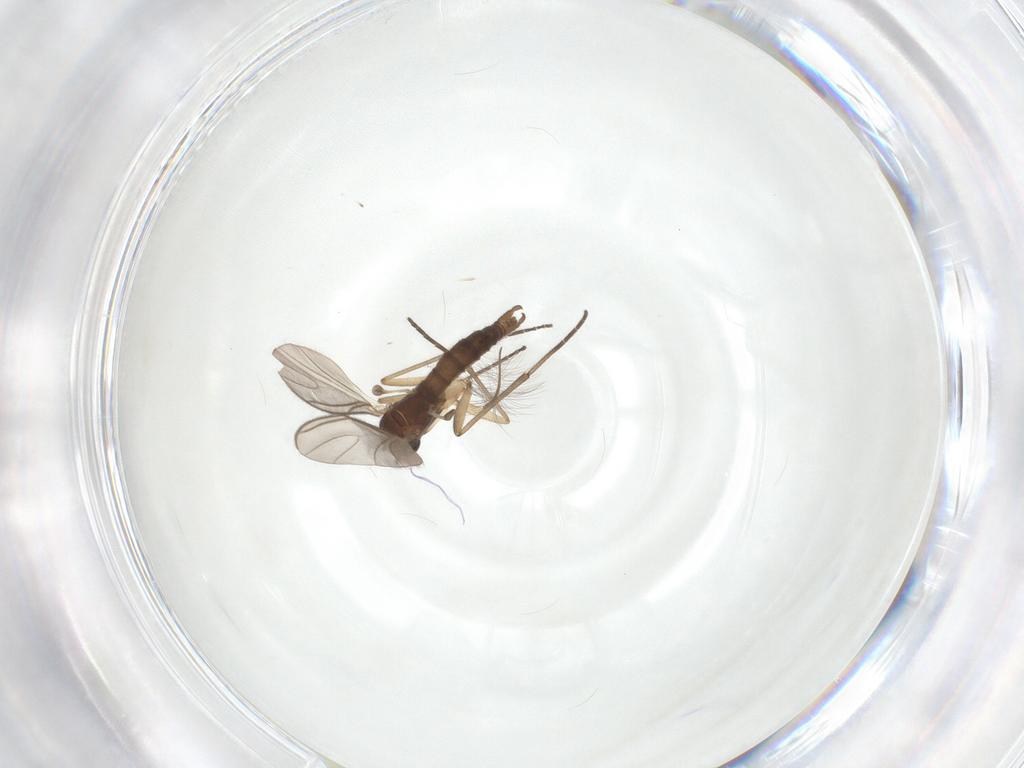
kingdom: Animalia
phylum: Arthropoda
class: Insecta
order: Diptera
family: Sciaridae
